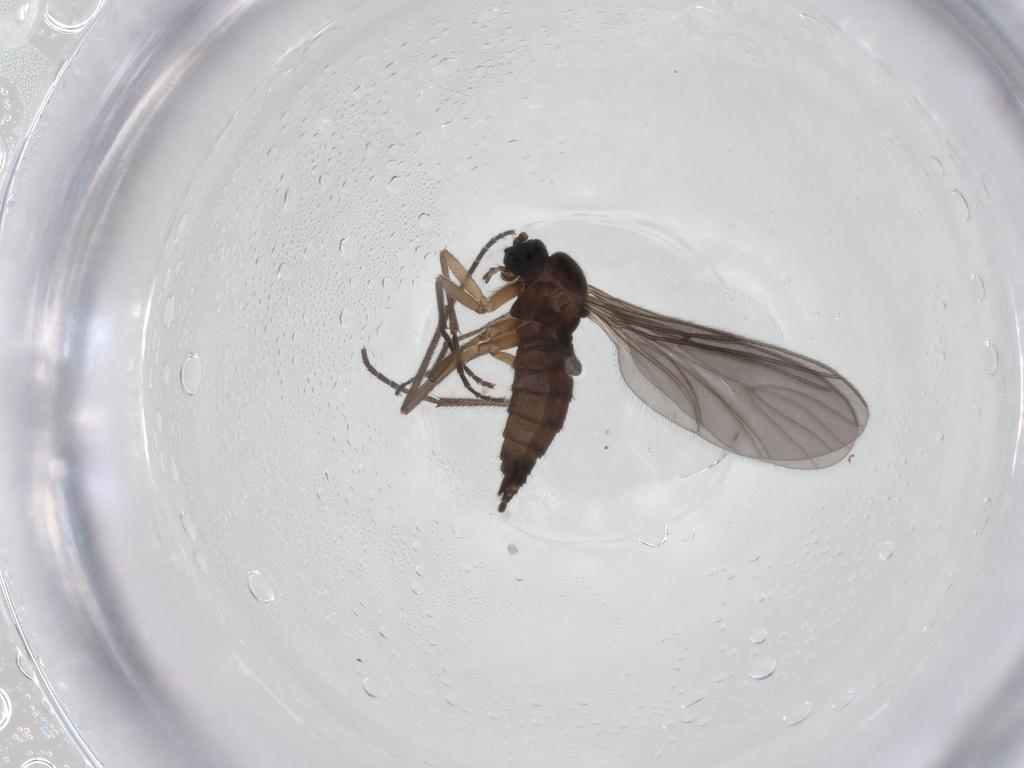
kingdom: Animalia
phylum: Arthropoda
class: Insecta
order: Diptera
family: Sciaridae
